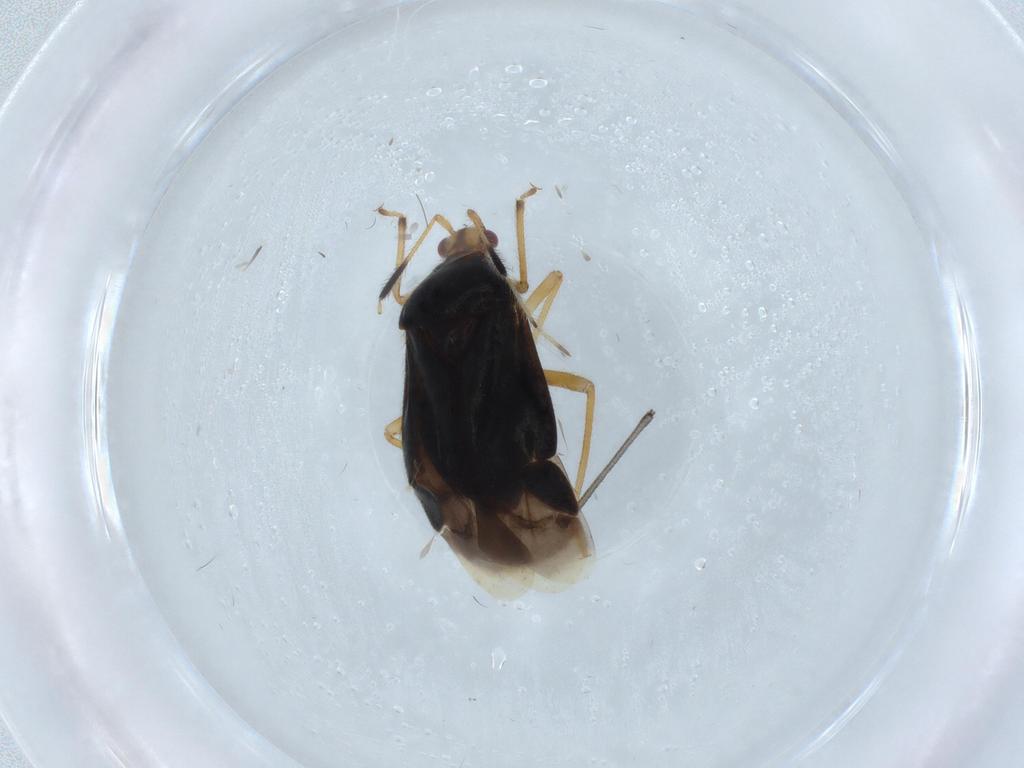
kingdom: Animalia
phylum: Arthropoda
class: Insecta
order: Hemiptera
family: Miridae
